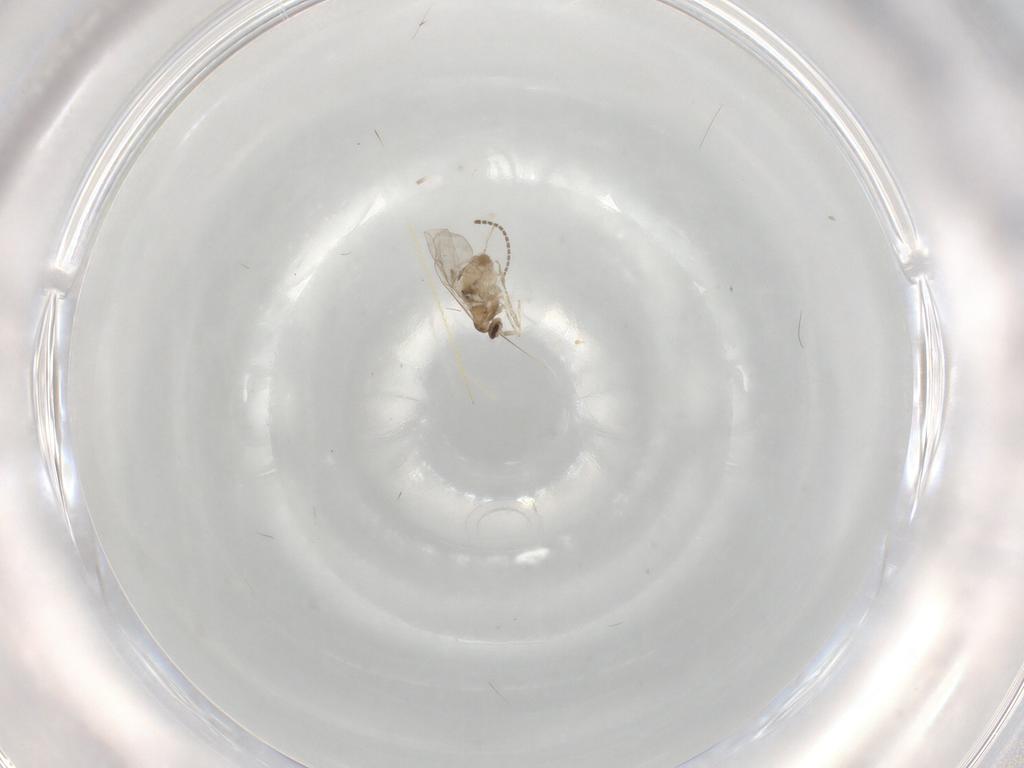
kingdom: Animalia
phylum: Arthropoda
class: Insecta
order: Diptera
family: Cecidomyiidae
